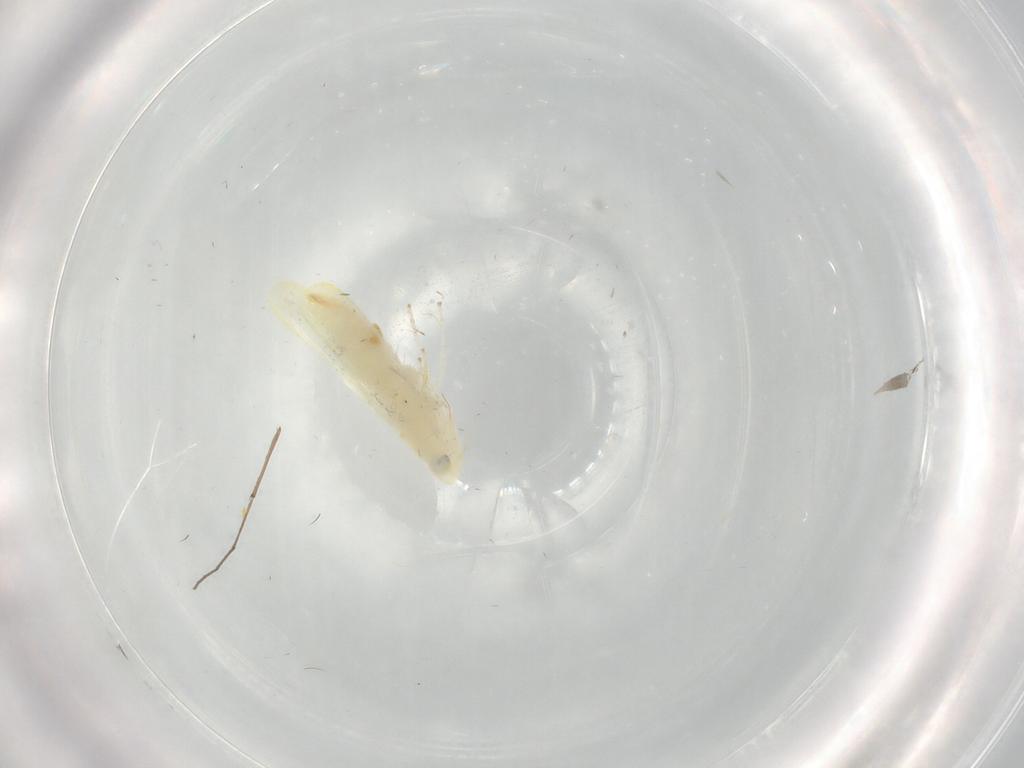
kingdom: Animalia
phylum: Arthropoda
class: Insecta
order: Hemiptera
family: Cicadellidae
